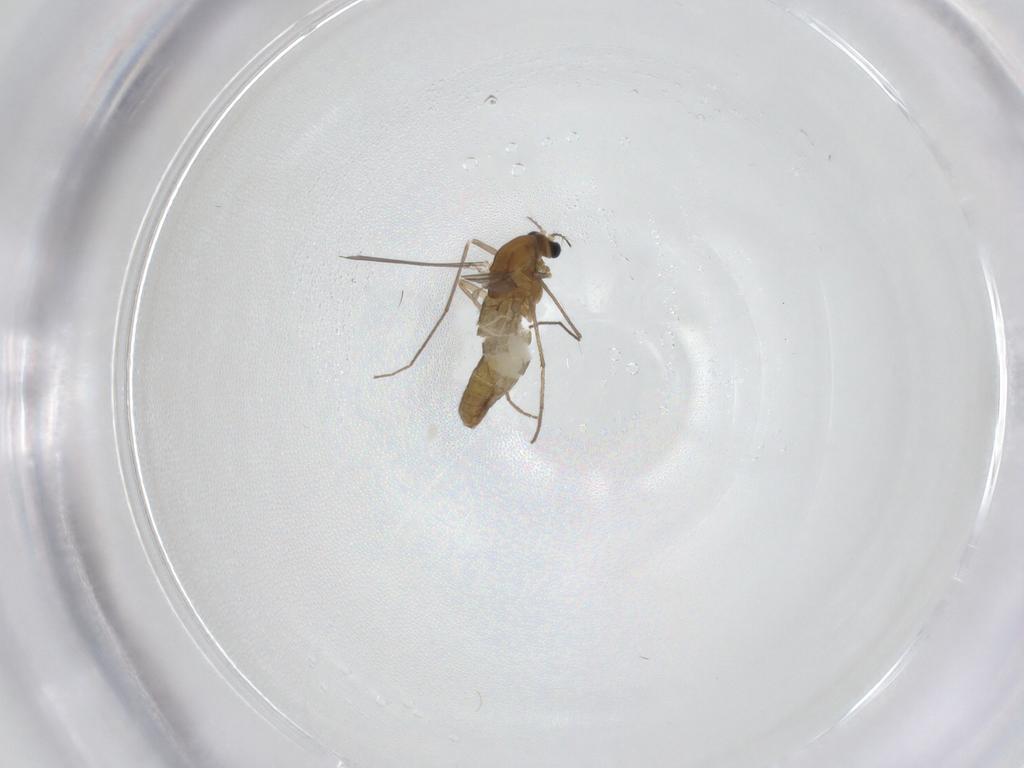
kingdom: Animalia
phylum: Arthropoda
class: Insecta
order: Diptera
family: Chironomidae
